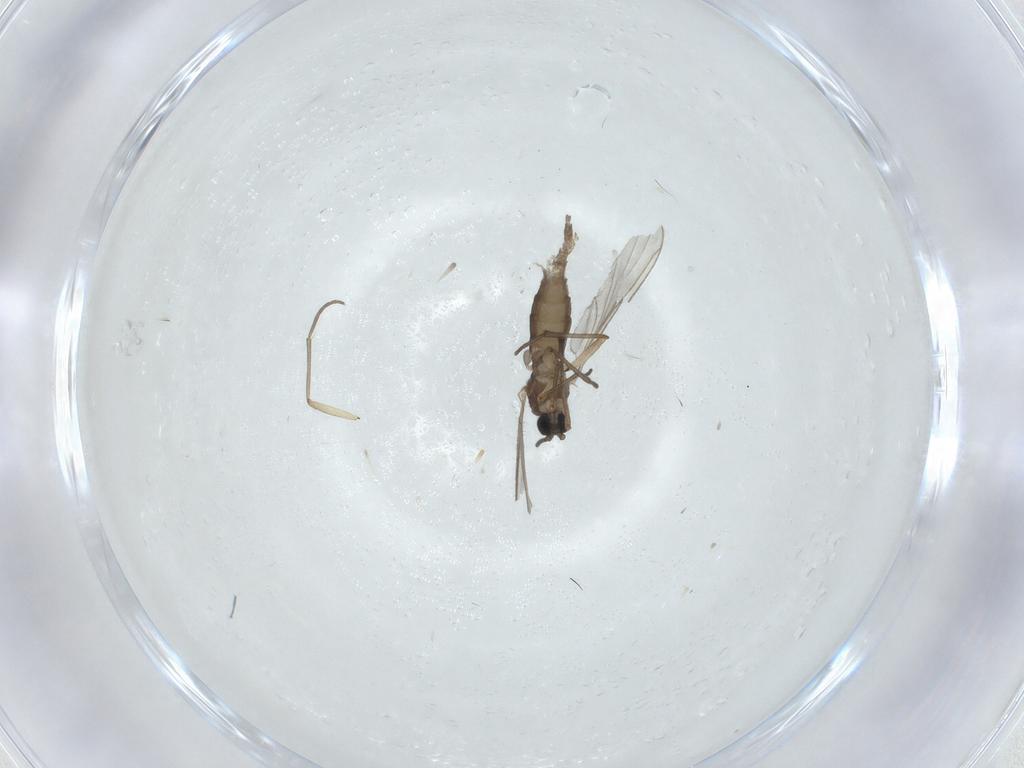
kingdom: Animalia
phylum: Arthropoda
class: Insecta
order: Diptera
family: Sciaridae
